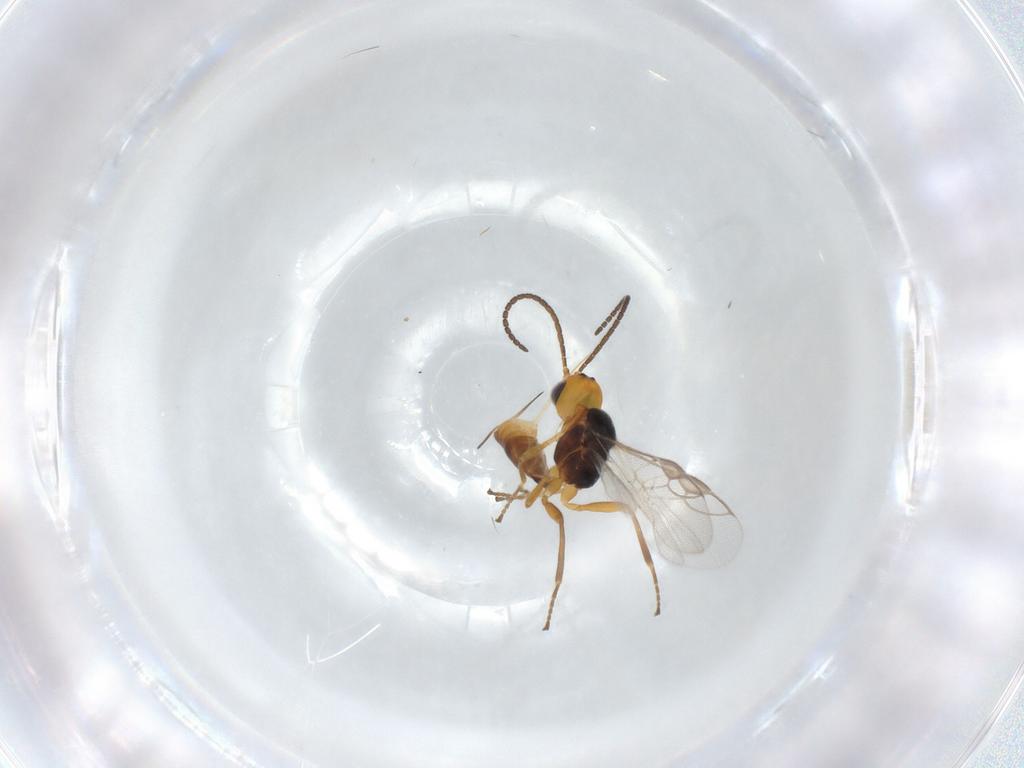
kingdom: Animalia
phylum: Arthropoda
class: Insecta
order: Hymenoptera
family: Braconidae
